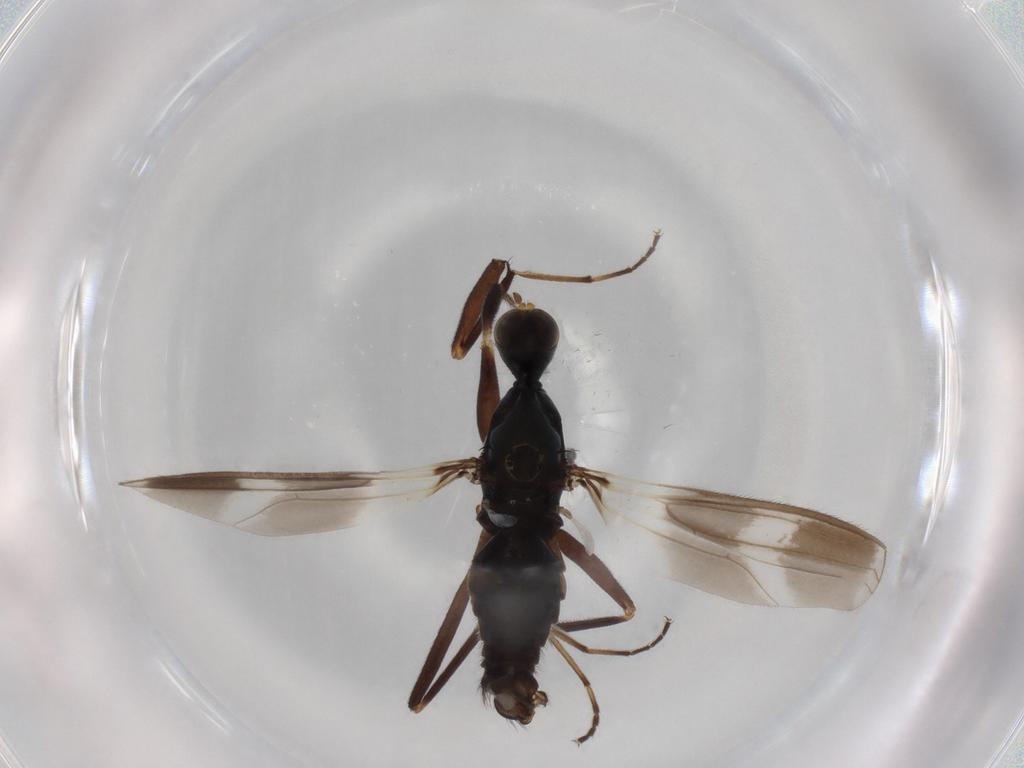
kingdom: Animalia
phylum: Arthropoda
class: Insecta
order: Diptera
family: Hybotidae
